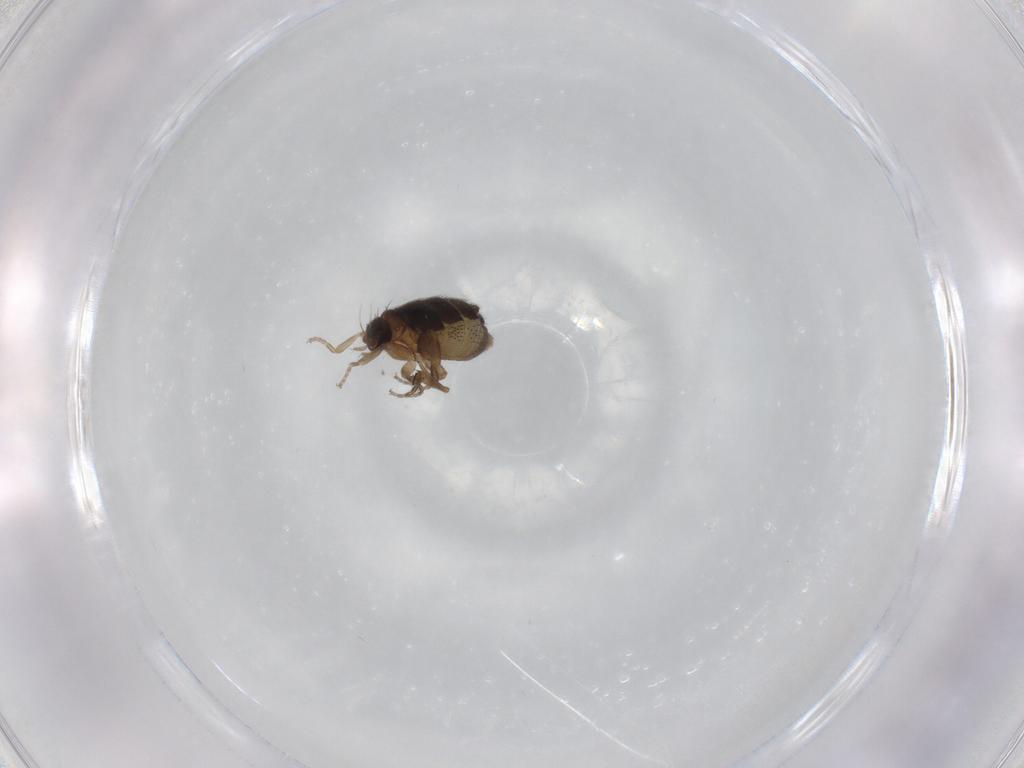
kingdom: Animalia
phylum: Arthropoda
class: Insecta
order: Diptera
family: Phoridae
